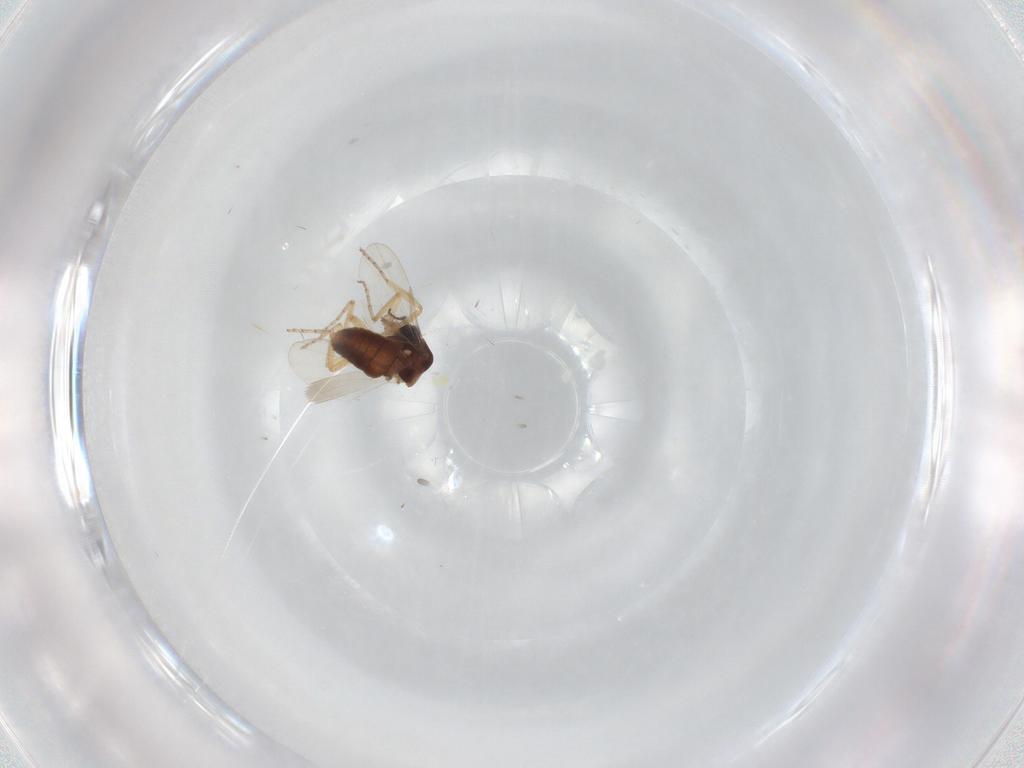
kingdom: Animalia
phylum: Arthropoda
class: Insecta
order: Diptera
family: Ceratopogonidae
